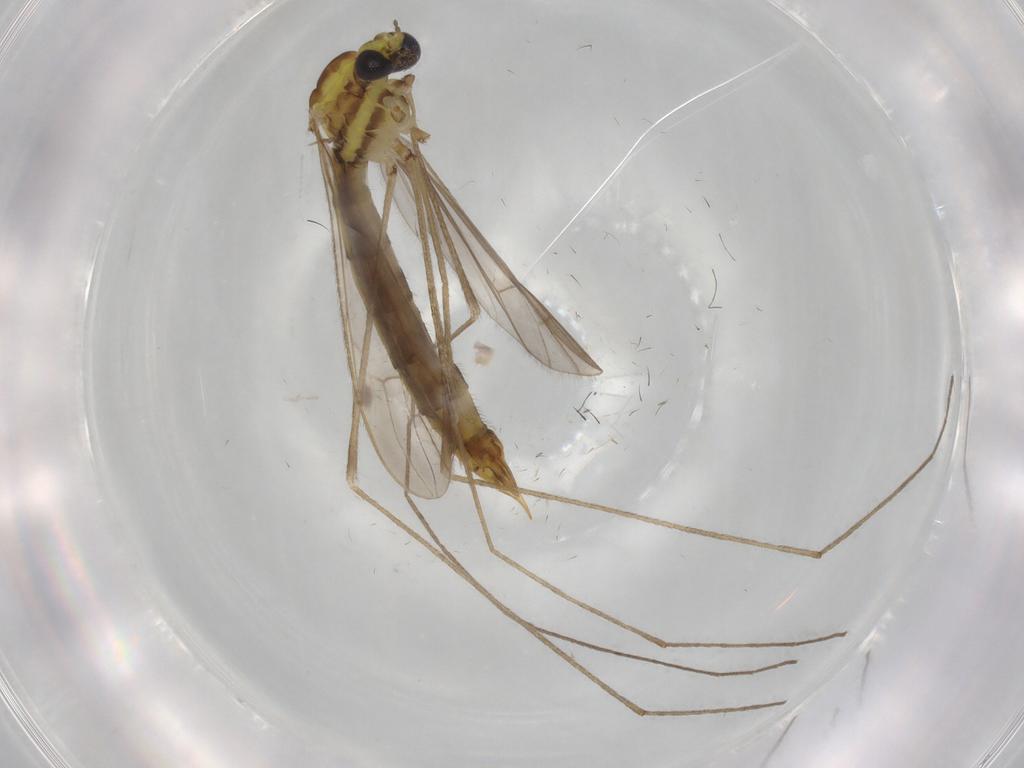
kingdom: Animalia
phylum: Arthropoda
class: Insecta
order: Diptera
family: Limoniidae
